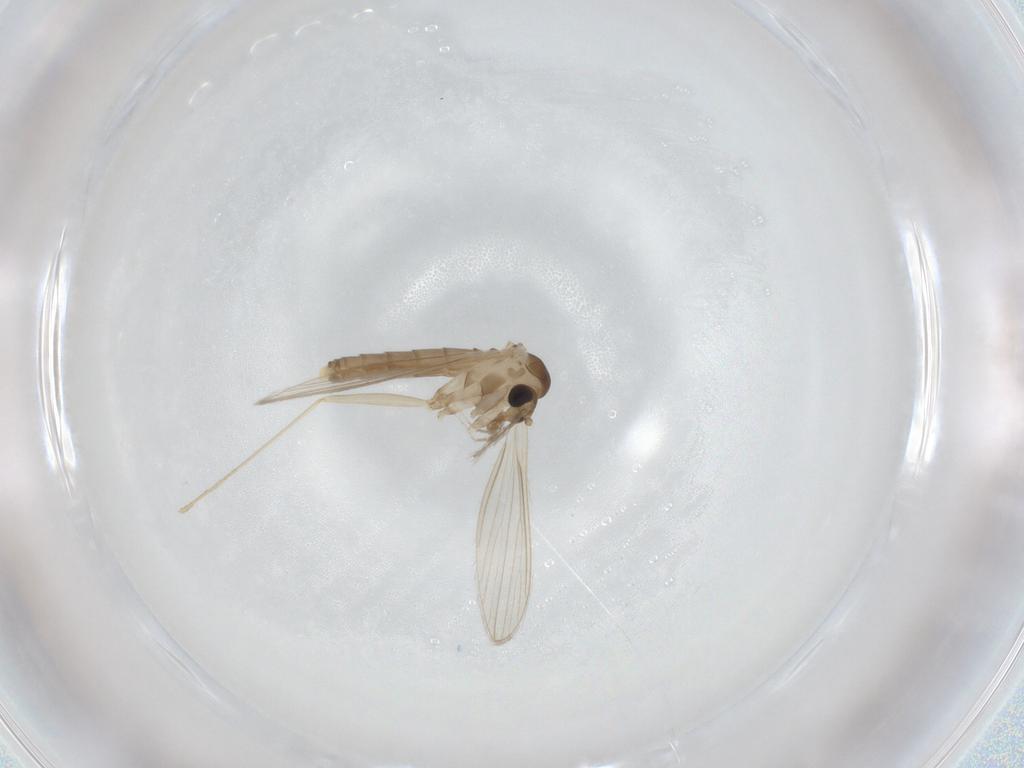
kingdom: Animalia
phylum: Arthropoda
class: Insecta
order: Diptera
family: Psychodidae
